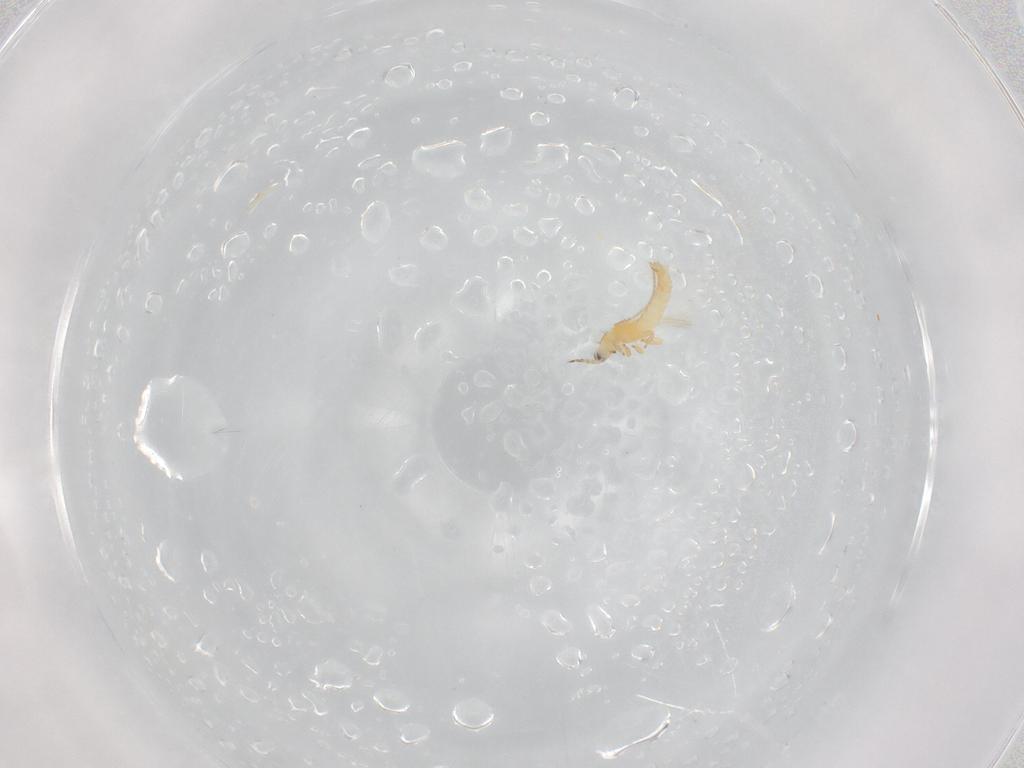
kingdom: Animalia
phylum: Arthropoda
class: Insecta
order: Thysanoptera
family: Thripidae
